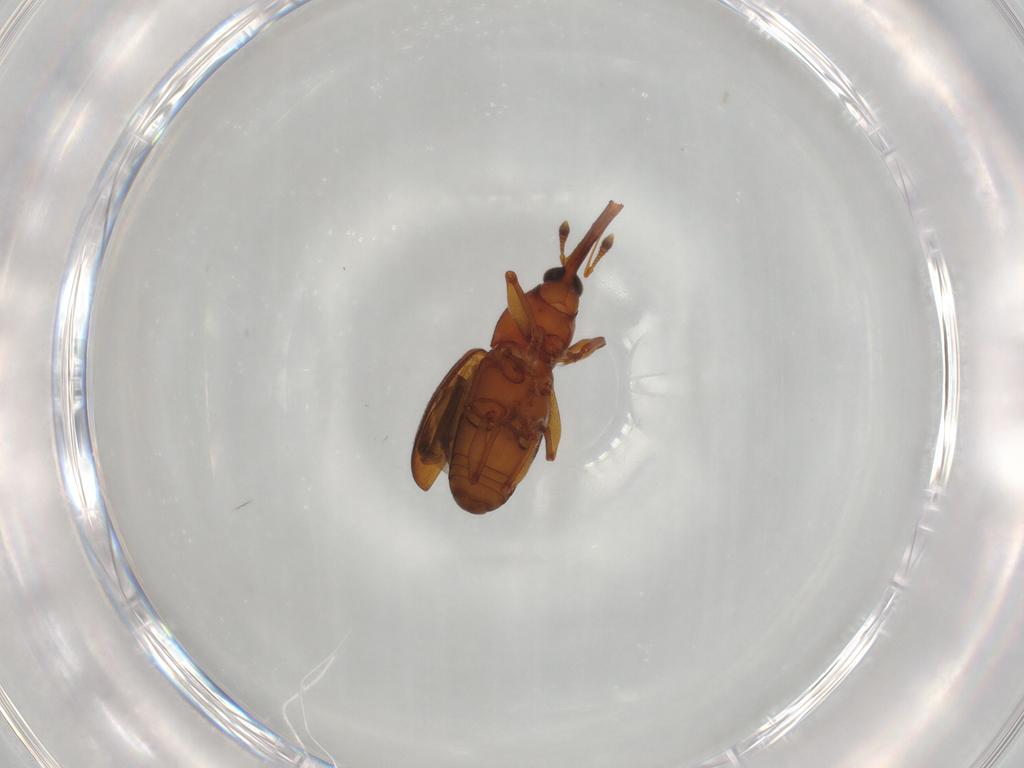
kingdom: Animalia
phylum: Arthropoda
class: Insecta
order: Coleoptera
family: Curculionidae
